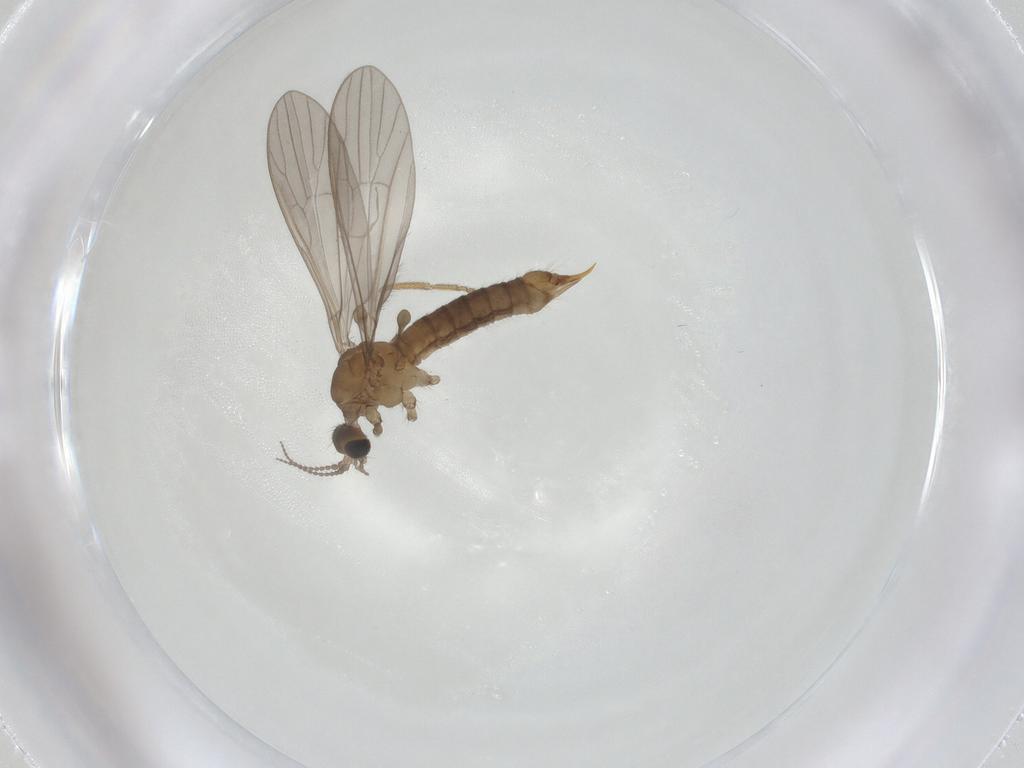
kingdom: Animalia
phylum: Arthropoda
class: Insecta
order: Diptera
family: Limoniidae
